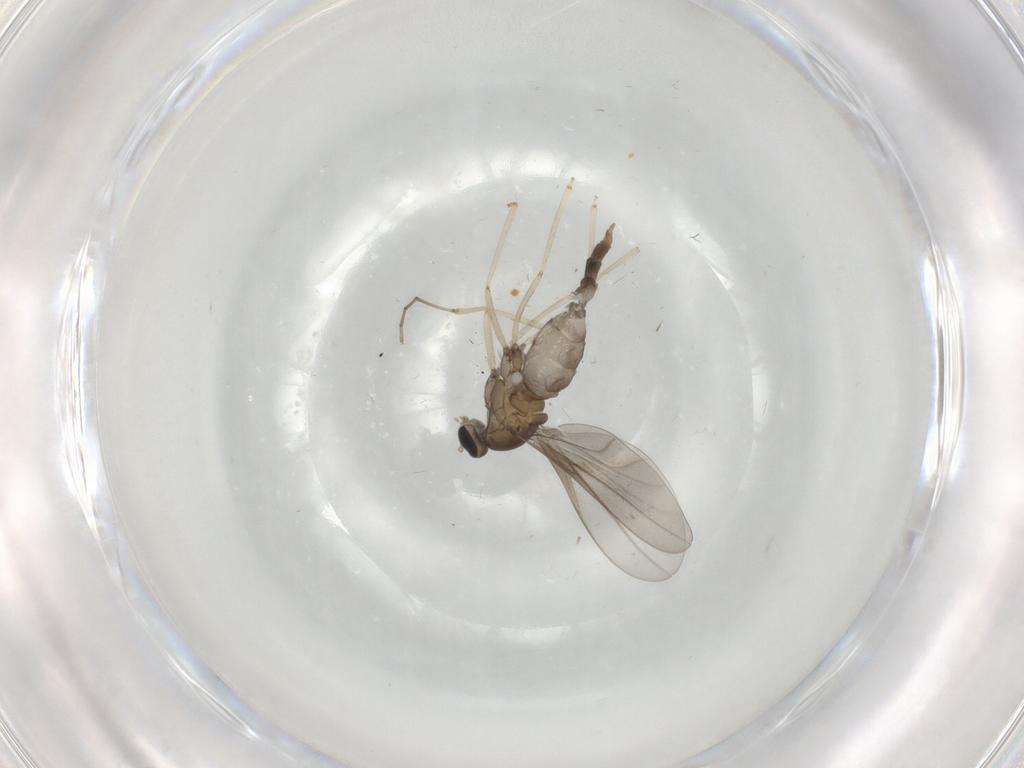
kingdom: Animalia
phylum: Arthropoda
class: Insecta
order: Diptera
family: Cecidomyiidae
